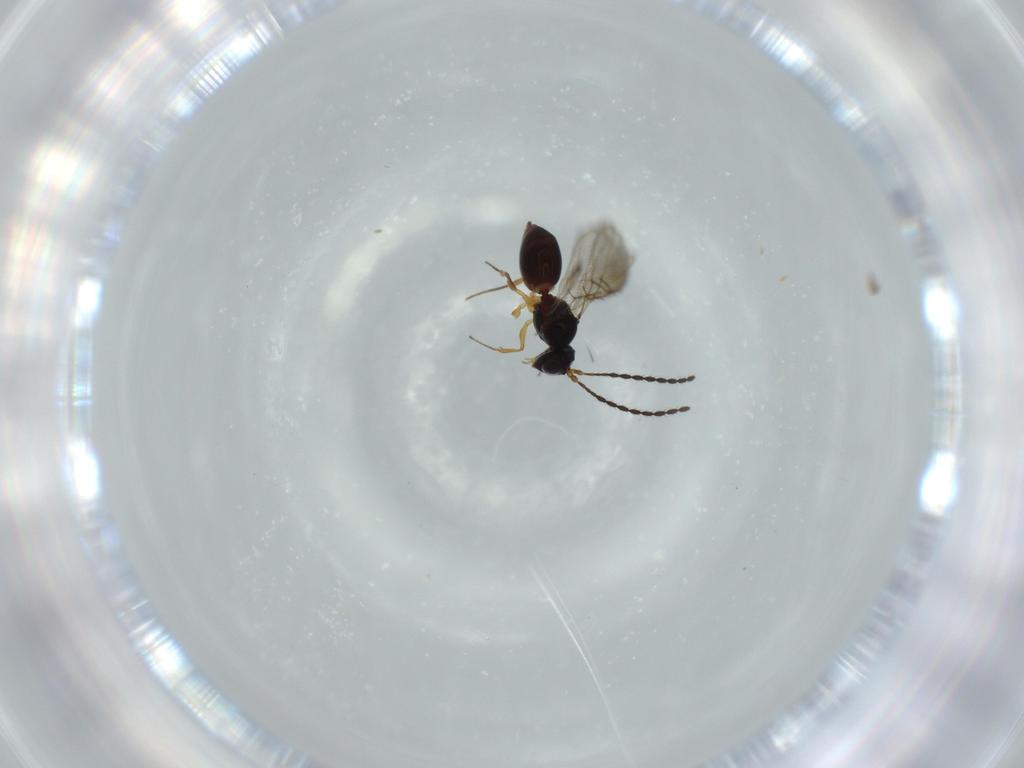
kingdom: Animalia
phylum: Arthropoda
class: Insecta
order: Hymenoptera
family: Figitidae
